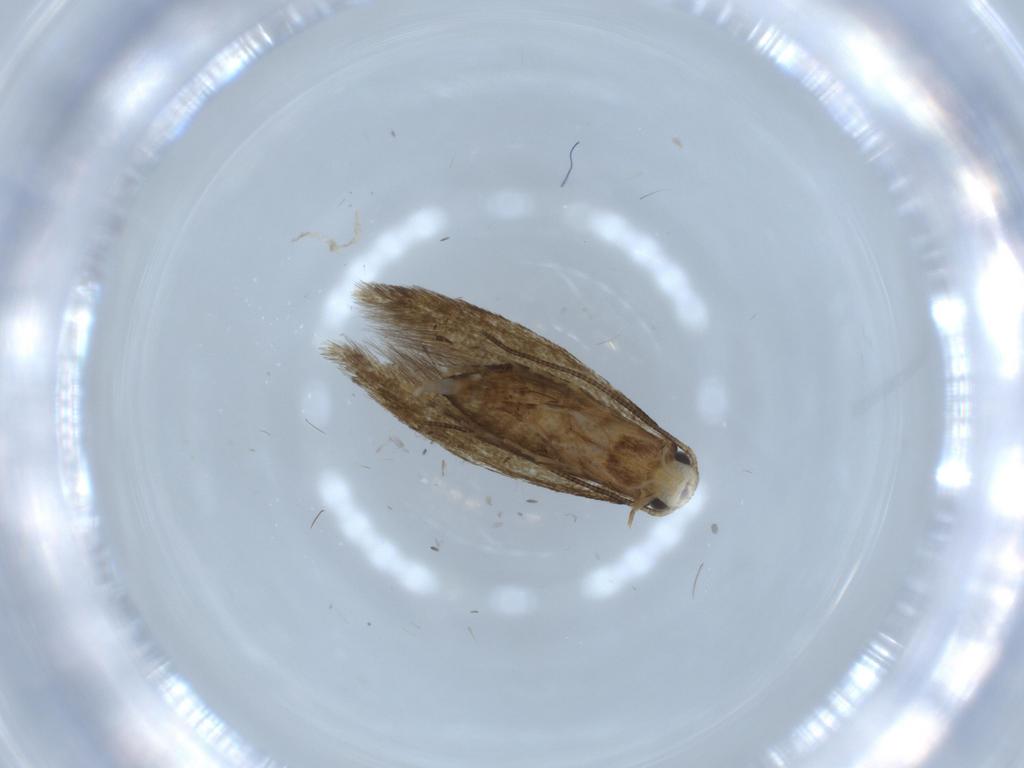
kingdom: Animalia
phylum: Arthropoda
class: Insecta
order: Lepidoptera
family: Tineidae
